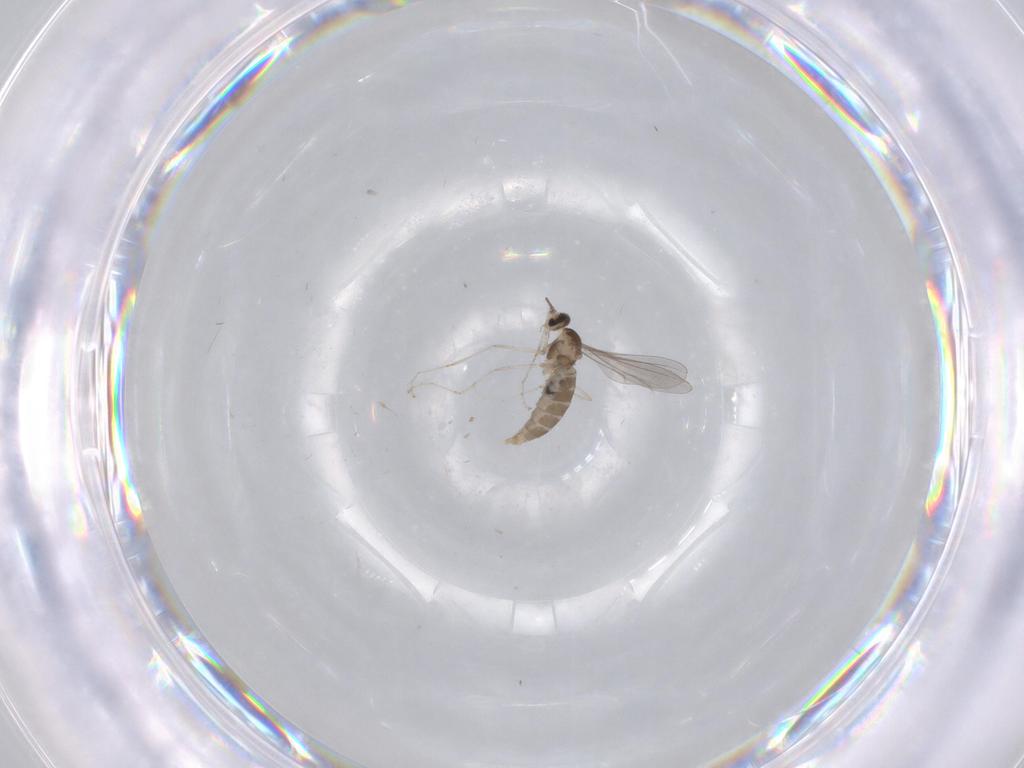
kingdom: Animalia
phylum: Arthropoda
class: Insecta
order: Diptera
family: Cecidomyiidae
